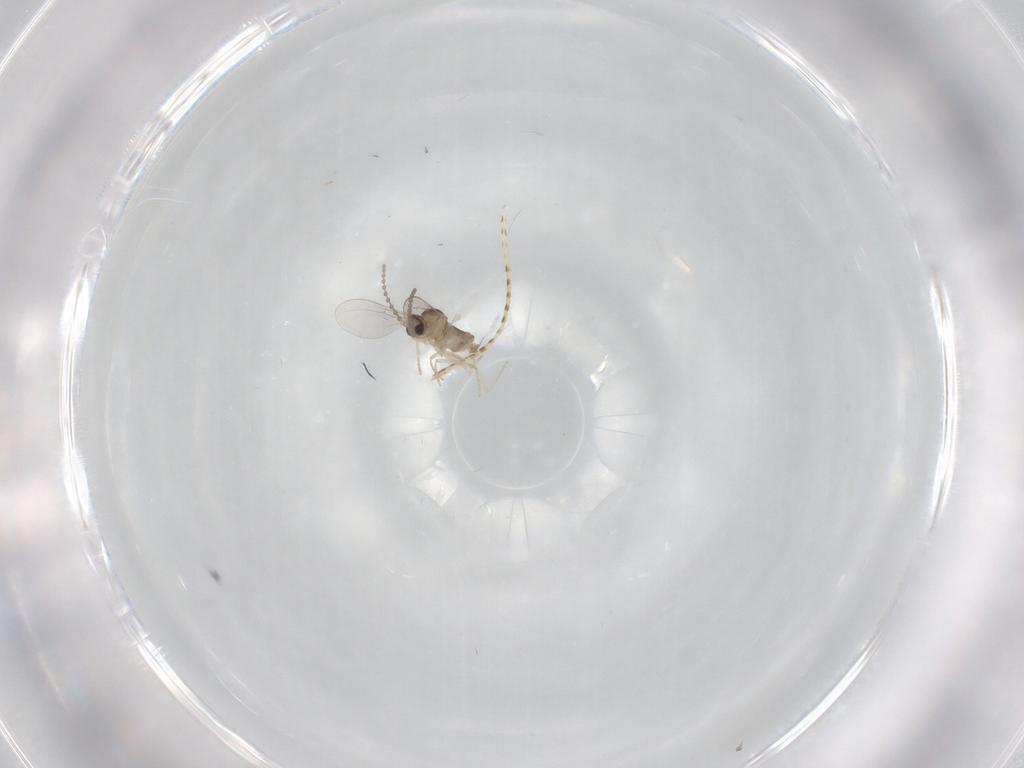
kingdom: Animalia
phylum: Arthropoda
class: Insecta
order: Diptera
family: Cecidomyiidae
